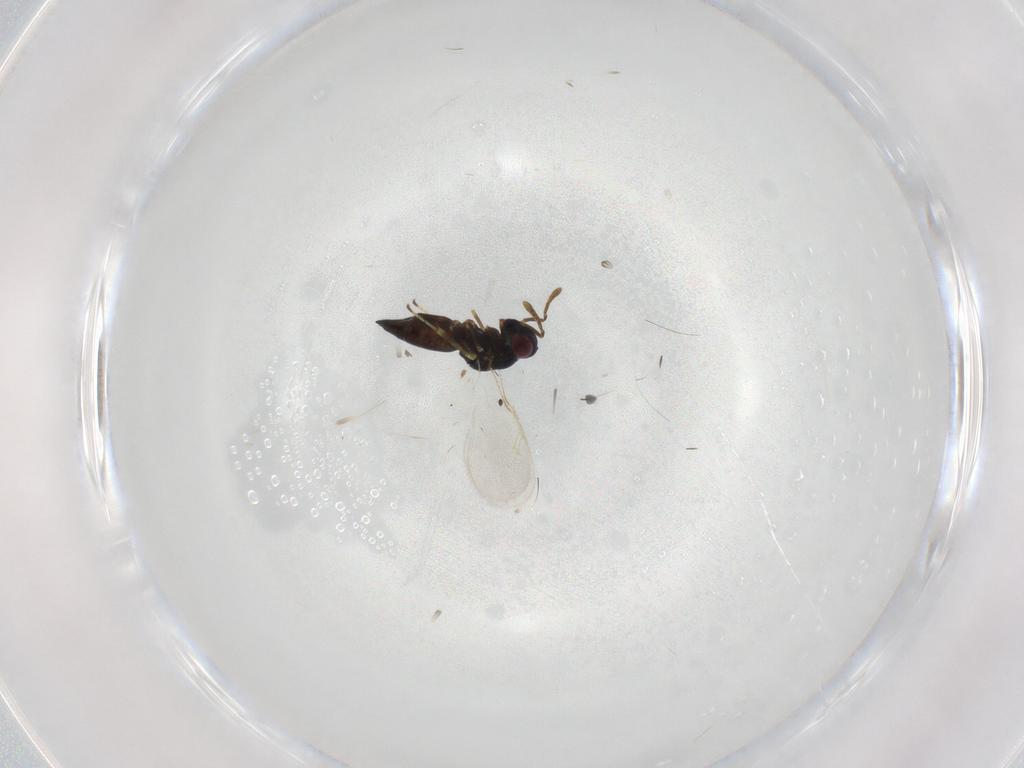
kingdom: Animalia
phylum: Arthropoda
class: Insecta
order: Hymenoptera
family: Pteromalidae
